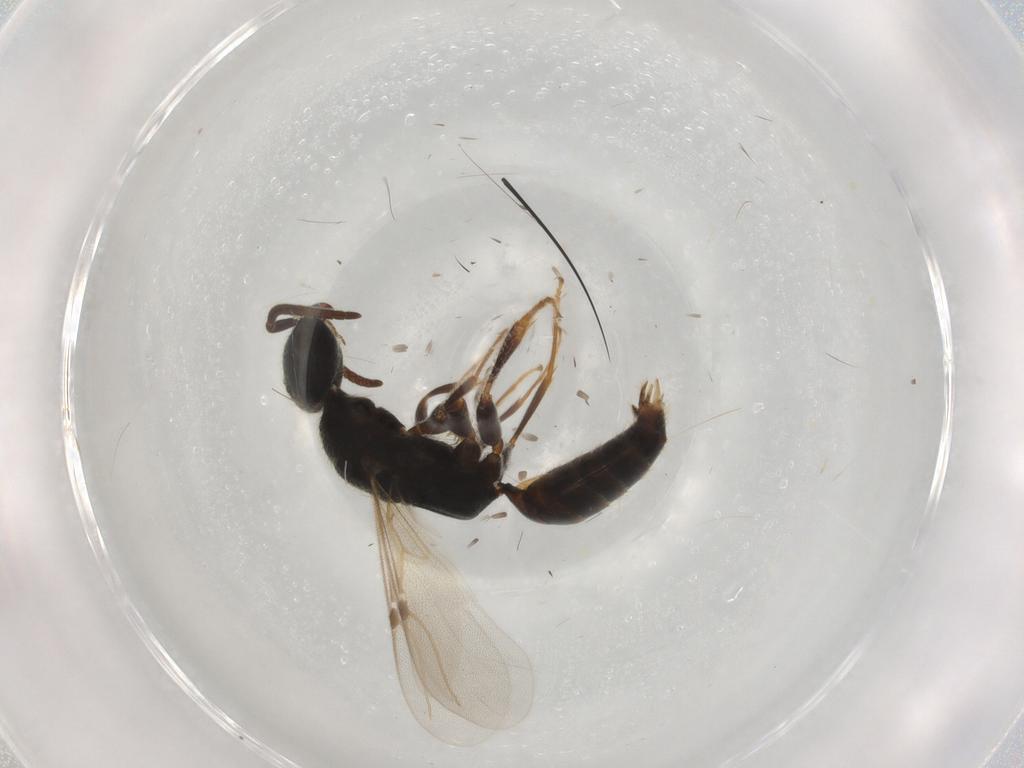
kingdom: Animalia
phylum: Arthropoda
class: Insecta
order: Hymenoptera
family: Bethylidae
